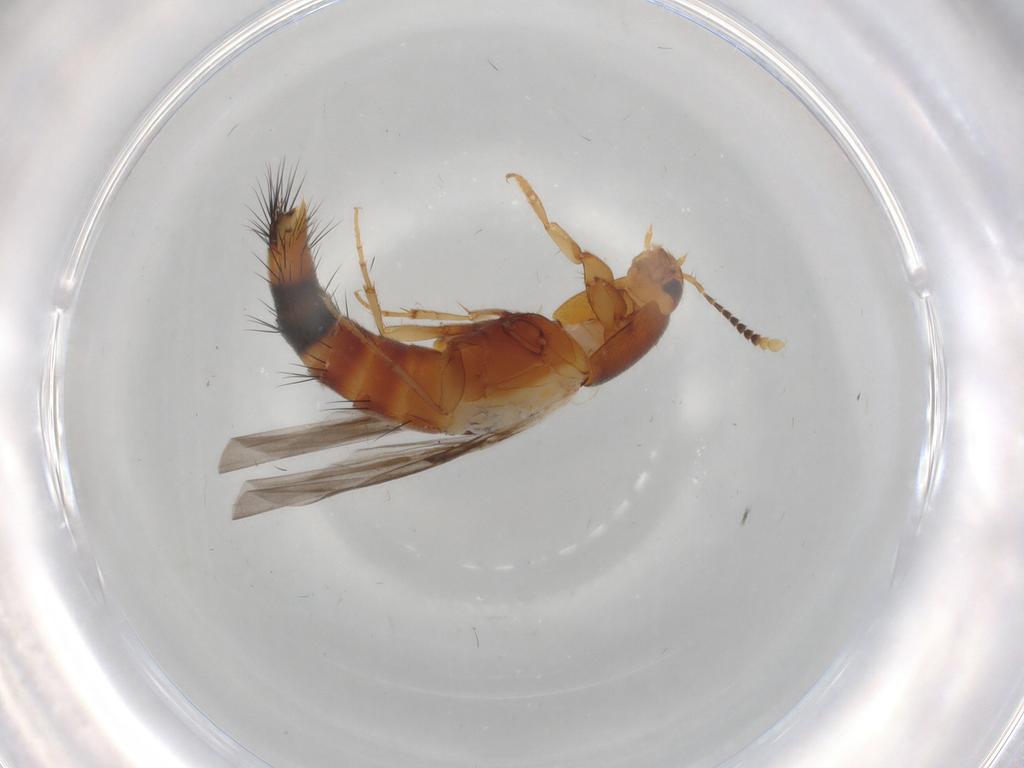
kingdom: Animalia
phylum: Arthropoda
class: Insecta
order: Coleoptera
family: Staphylinidae
